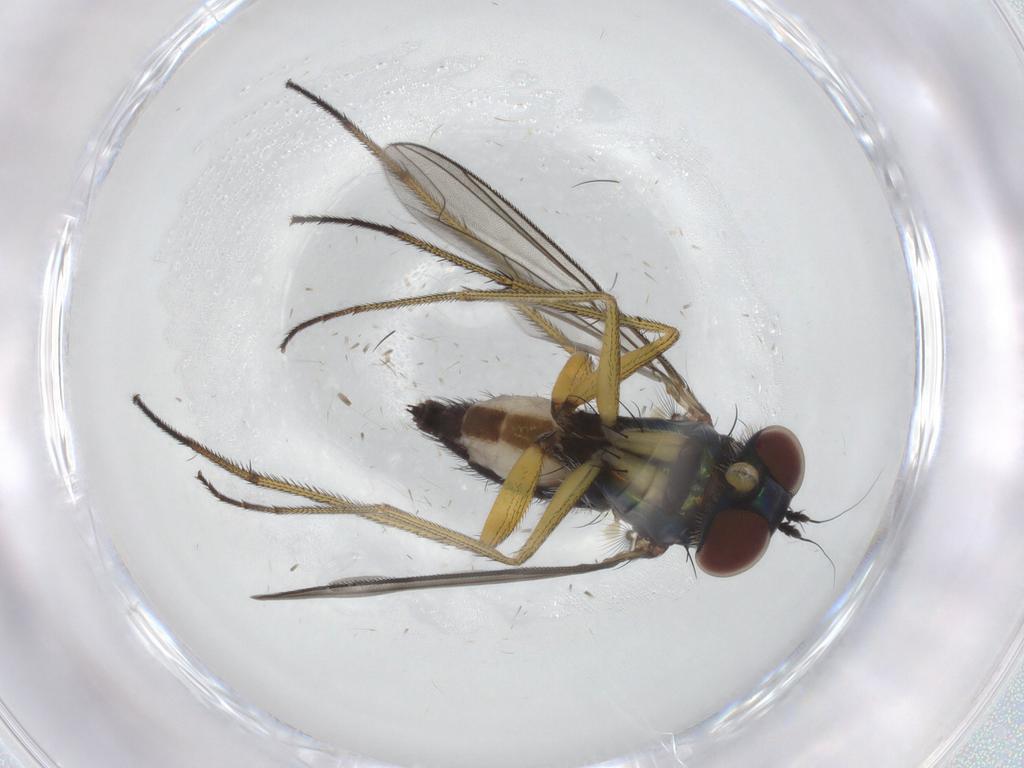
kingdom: Animalia
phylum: Arthropoda
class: Insecta
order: Diptera
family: Dolichopodidae
